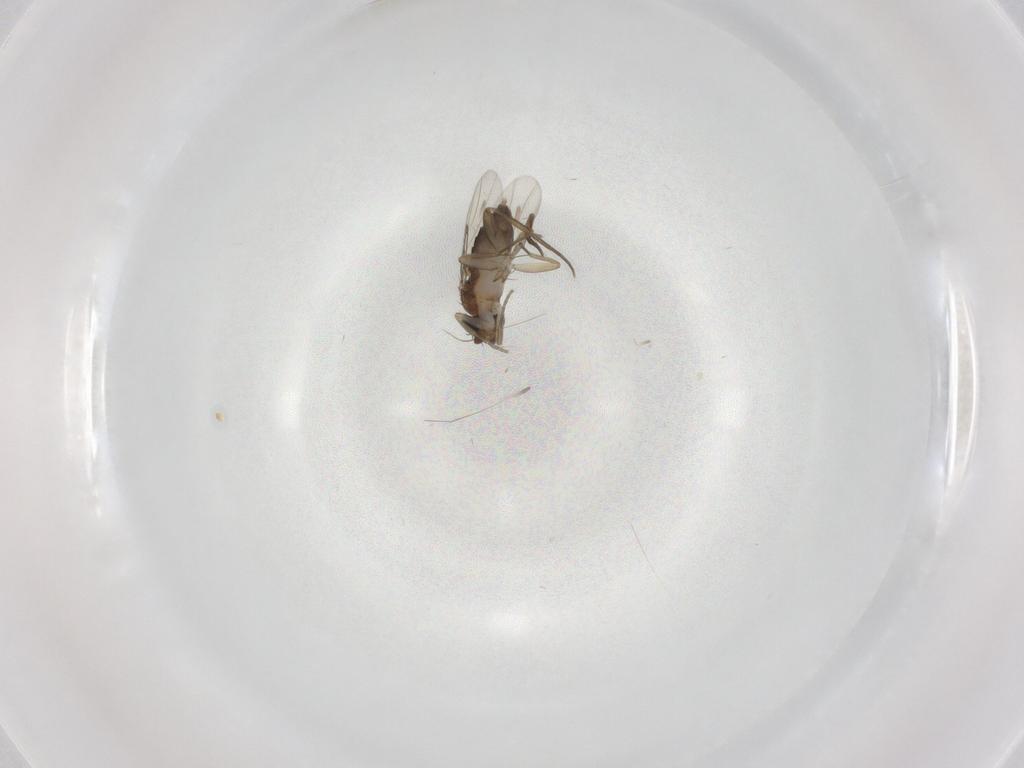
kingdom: Animalia
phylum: Arthropoda
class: Insecta
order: Diptera
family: Phoridae
